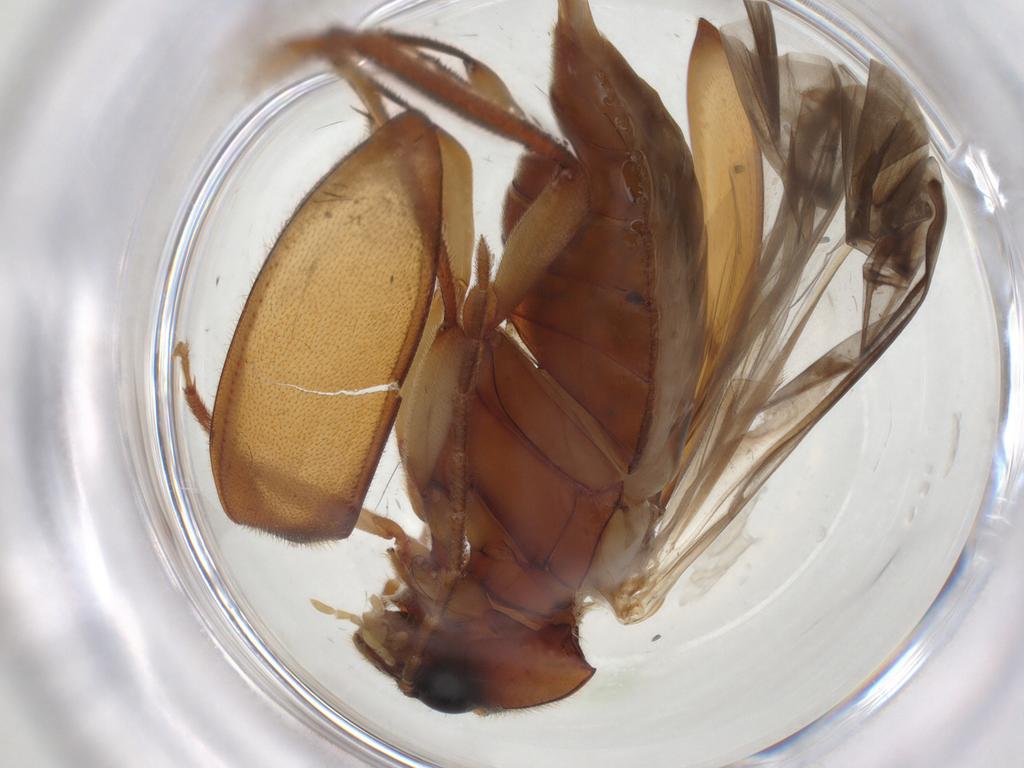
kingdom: Animalia
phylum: Arthropoda
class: Insecta
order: Coleoptera
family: Ptilodactylidae
